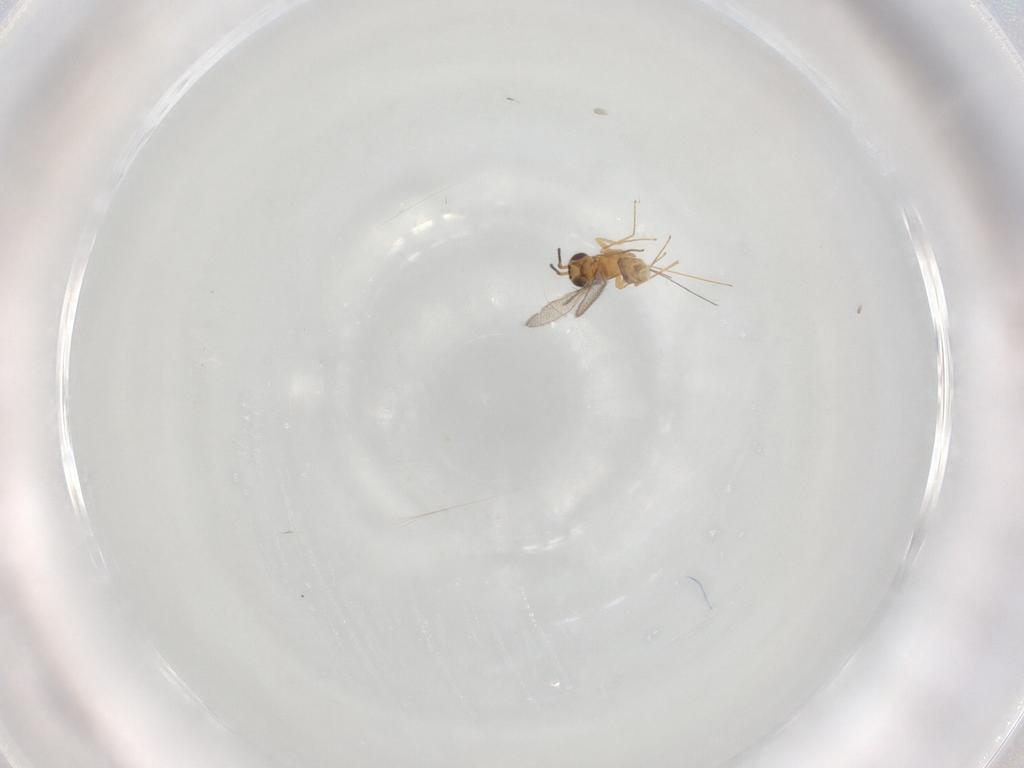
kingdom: Animalia
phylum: Arthropoda
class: Insecta
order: Hymenoptera
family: Mymaridae
